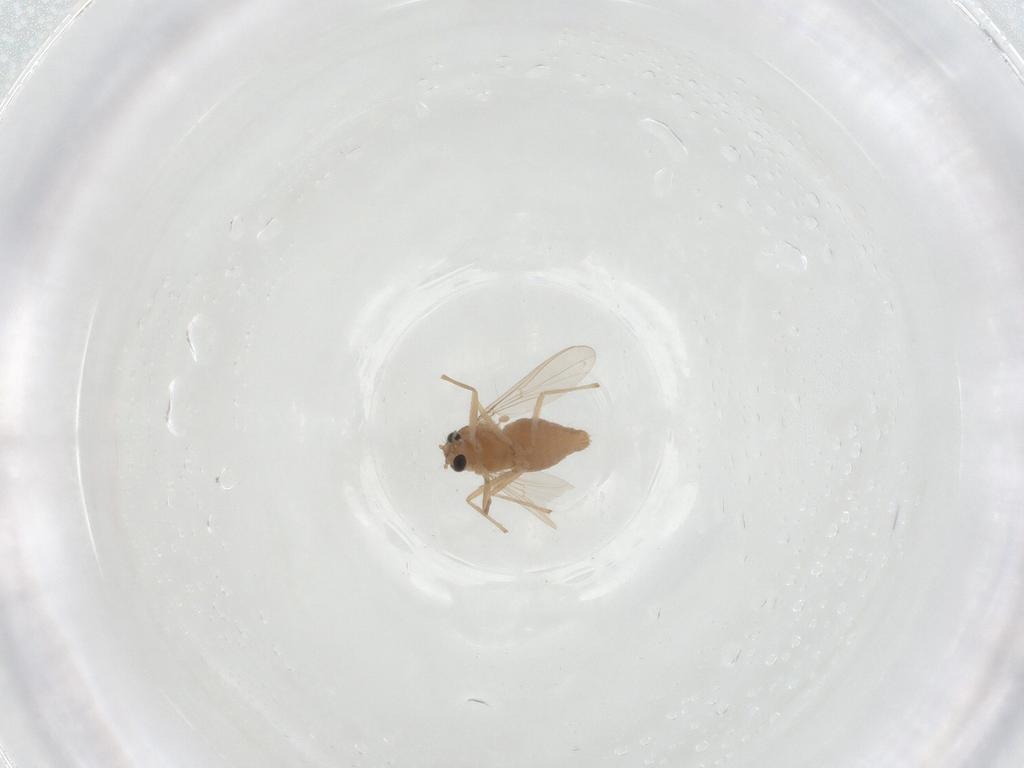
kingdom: Animalia
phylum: Arthropoda
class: Insecta
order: Diptera
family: Chironomidae
